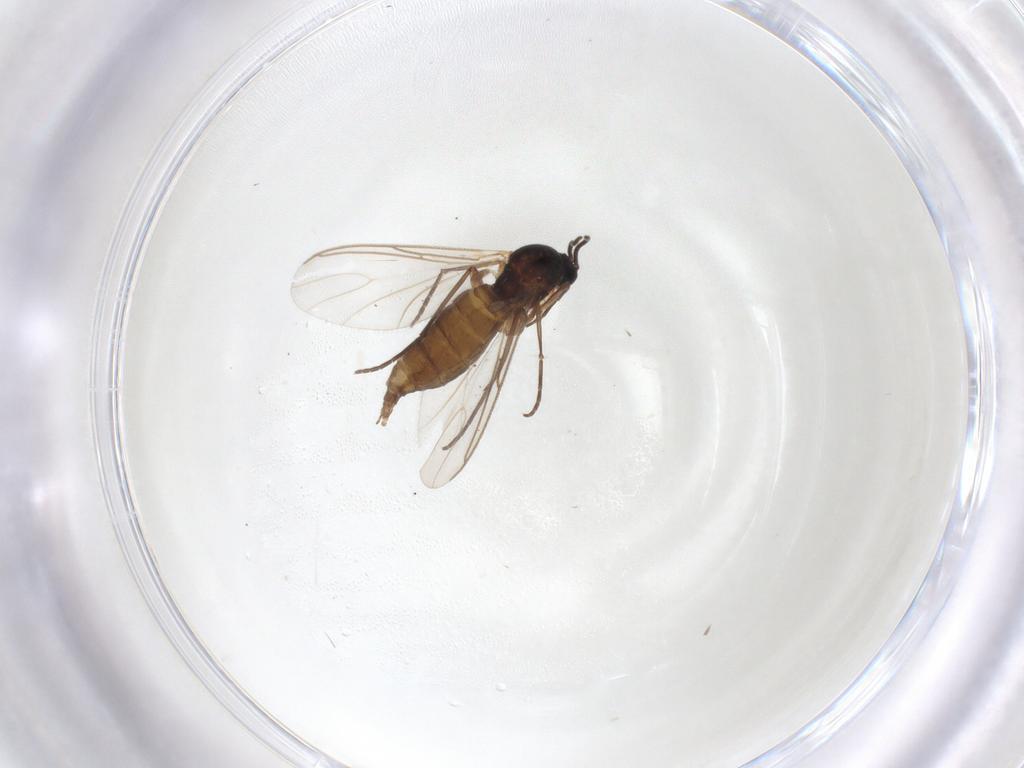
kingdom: Animalia
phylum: Arthropoda
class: Insecta
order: Diptera
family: Sciaridae
